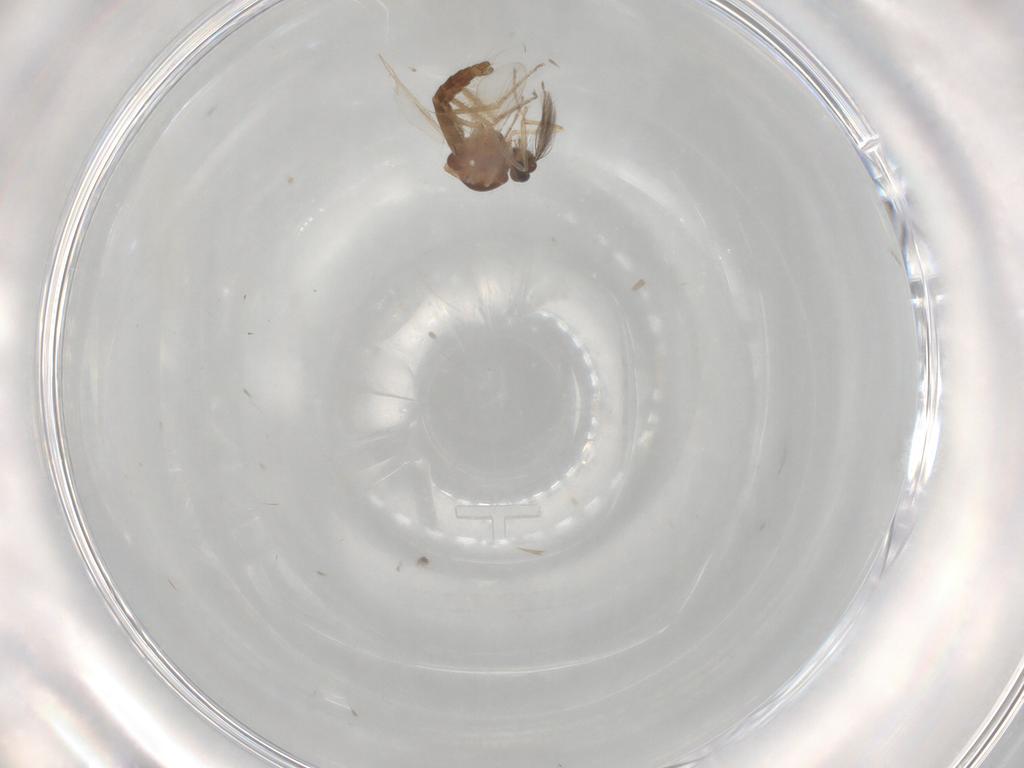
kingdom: Animalia
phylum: Arthropoda
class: Insecta
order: Diptera
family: Ceratopogonidae
